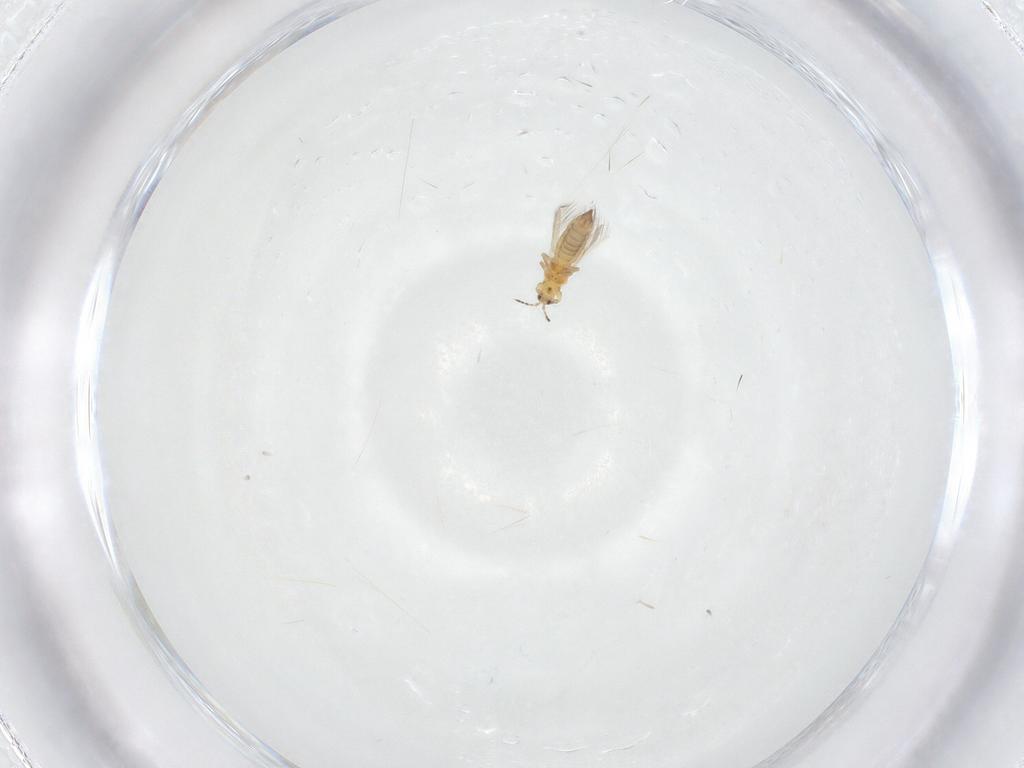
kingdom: Animalia
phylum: Arthropoda
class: Insecta
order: Thysanoptera
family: Thripidae
